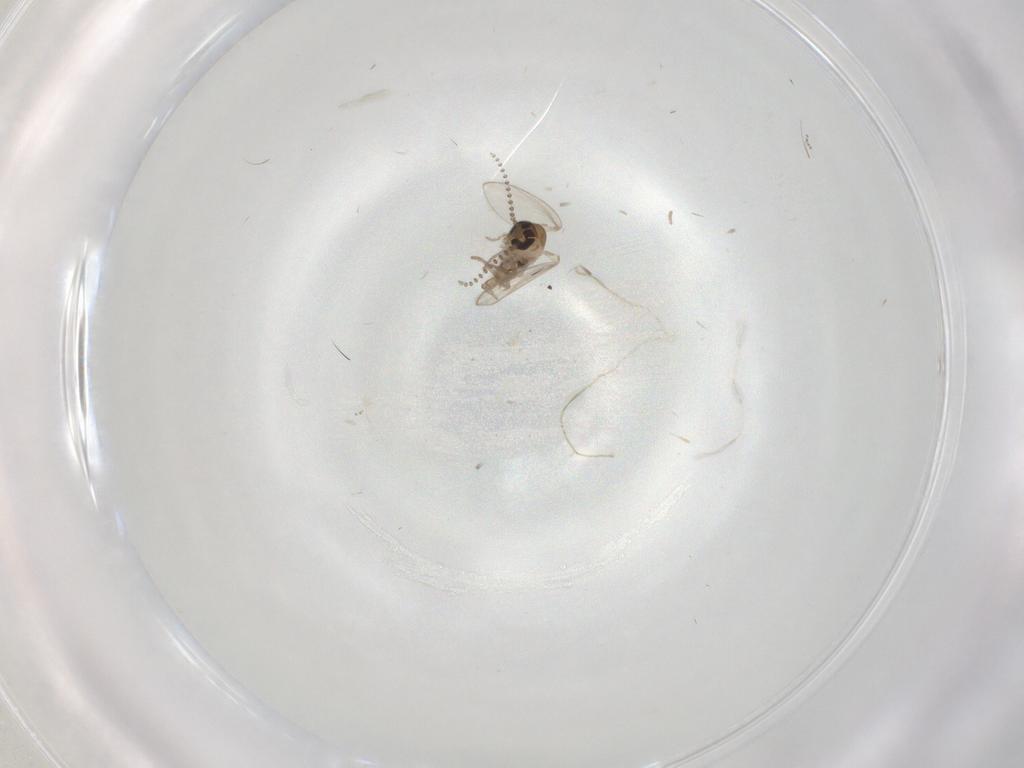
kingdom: Animalia
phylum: Arthropoda
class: Insecta
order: Diptera
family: Psychodidae
